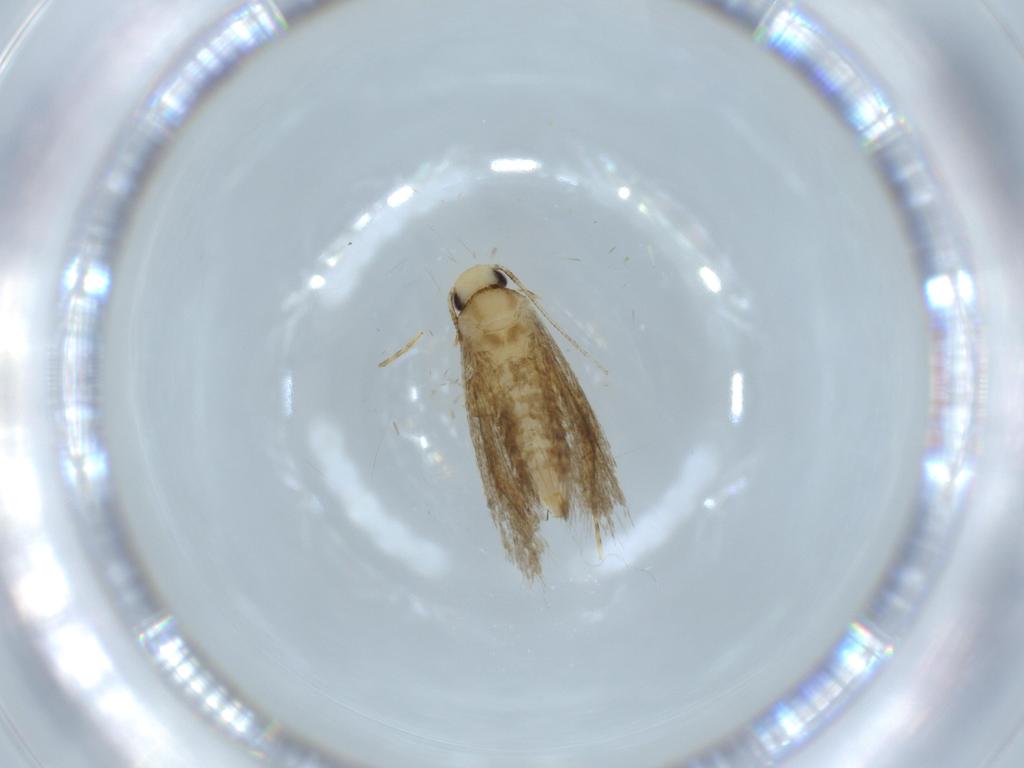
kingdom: Animalia
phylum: Arthropoda
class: Insecta
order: Lepidoptera
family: Tineidae
